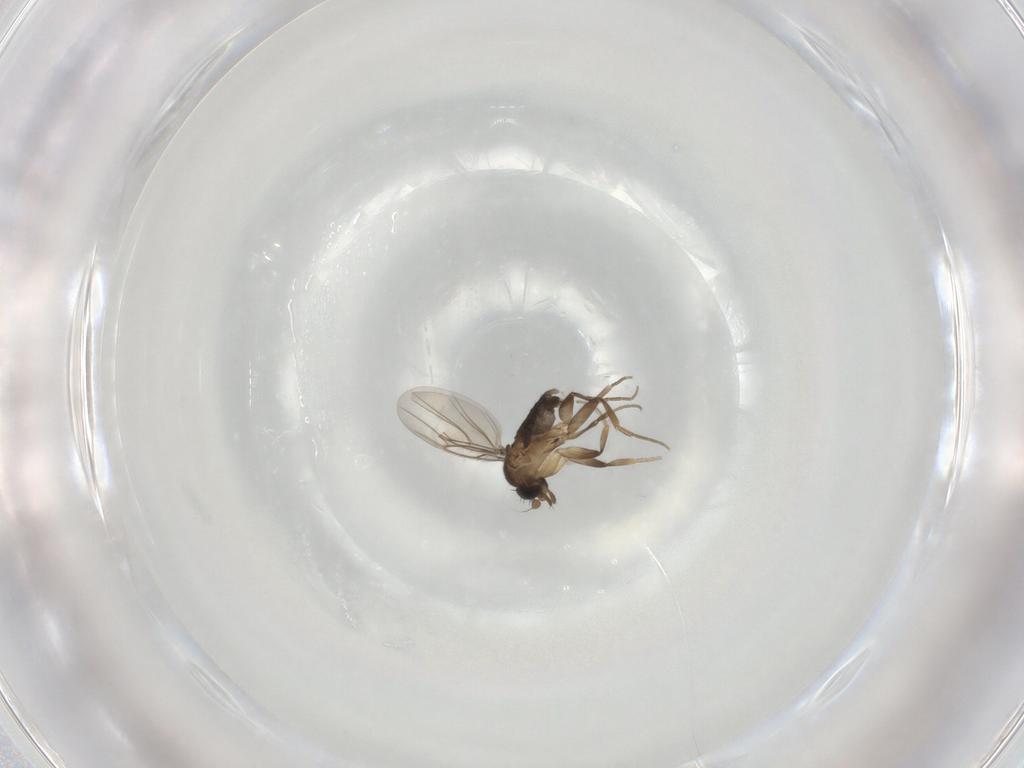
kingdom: Animalia
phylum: Arthropoda
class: Insecta
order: Diptera
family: Phoridae
